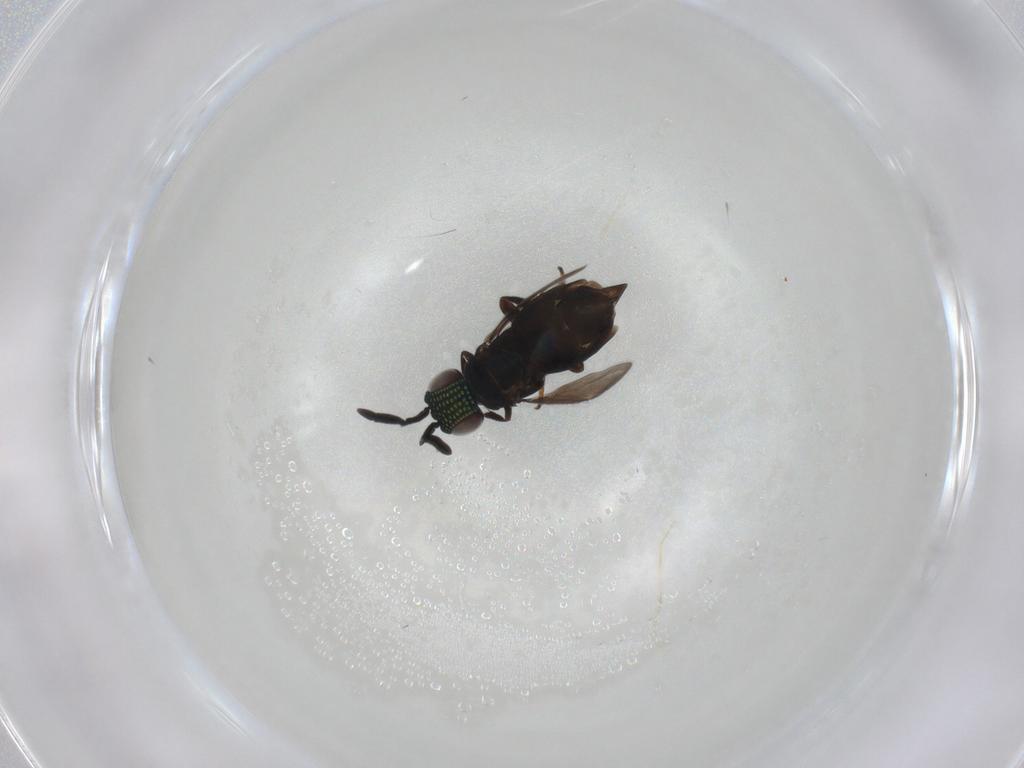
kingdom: Animalia
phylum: Arthropoda
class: Insecta
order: Hymenoptera
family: Encyrtidae
